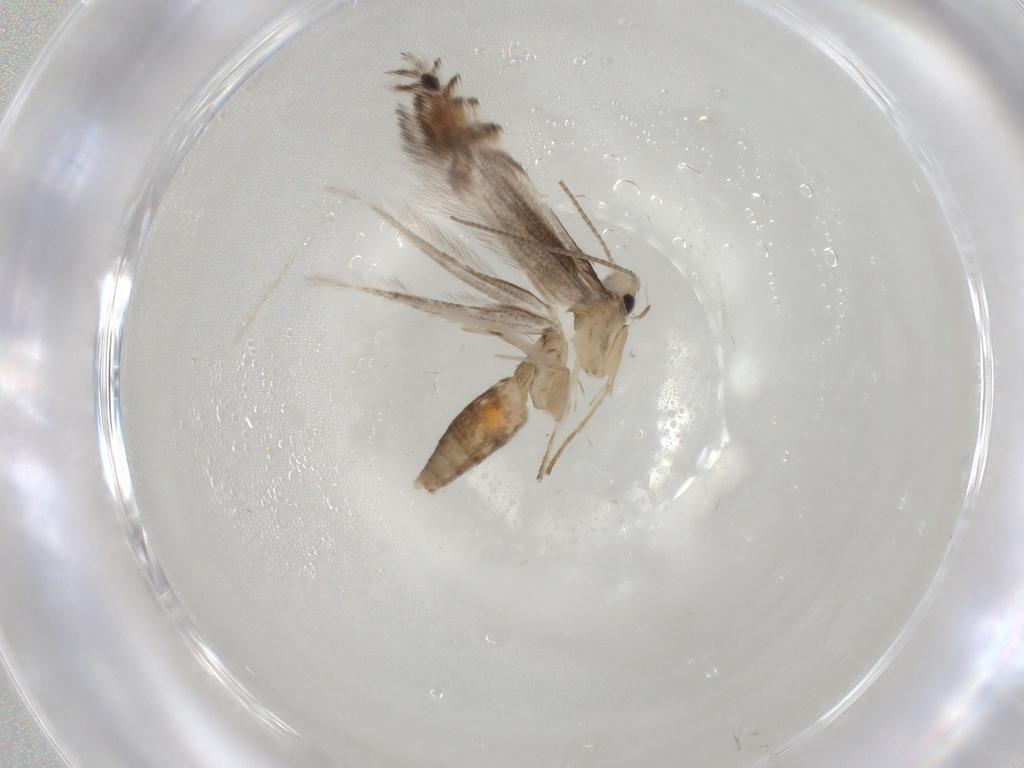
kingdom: Animalia
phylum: Arthropoda
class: Insecta
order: Lepidoptera
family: Gracillariidae
